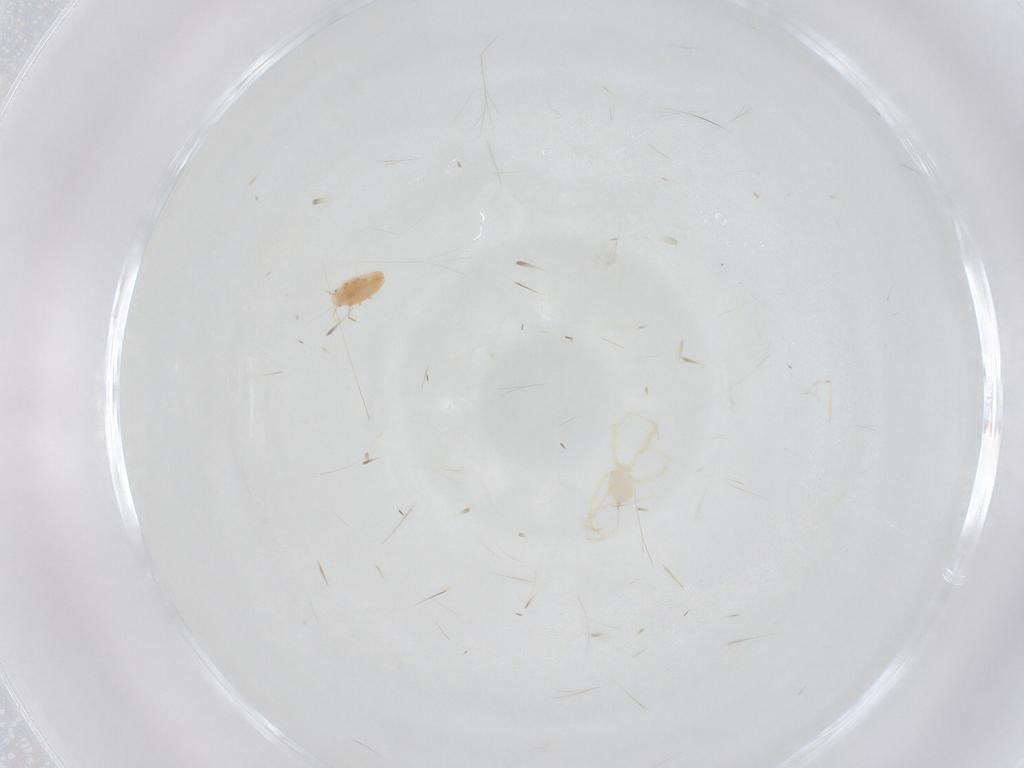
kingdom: Animalia
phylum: Arthropoda
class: Arachnida
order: Trombidiformes
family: Erythraeidae
